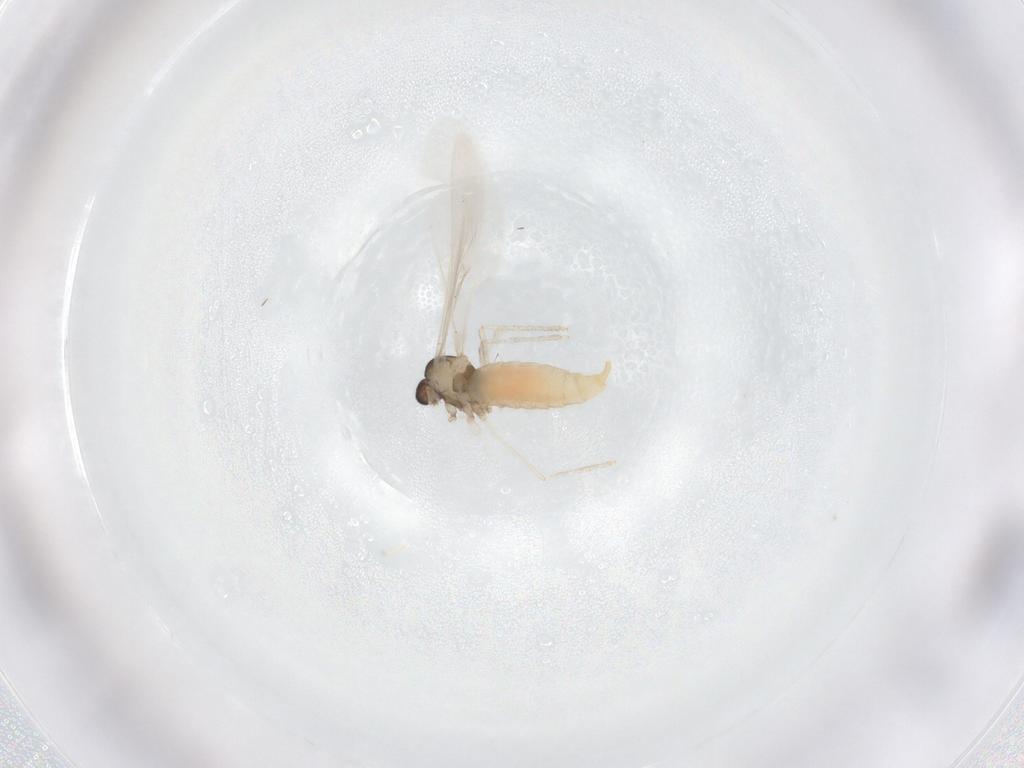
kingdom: Animalia
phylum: Arthropoda
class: Insecta
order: Diptera
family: Cecidomyiidae
